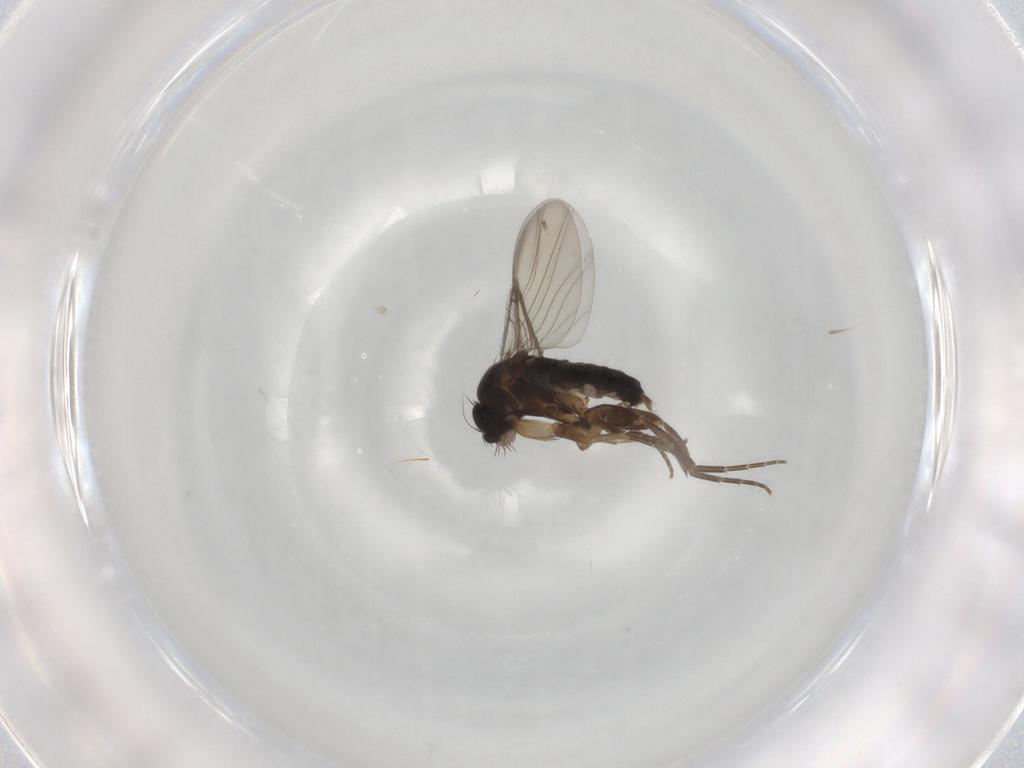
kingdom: Animalia
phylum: Arthropoda
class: Insecta
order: Diptera
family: Phoridae
